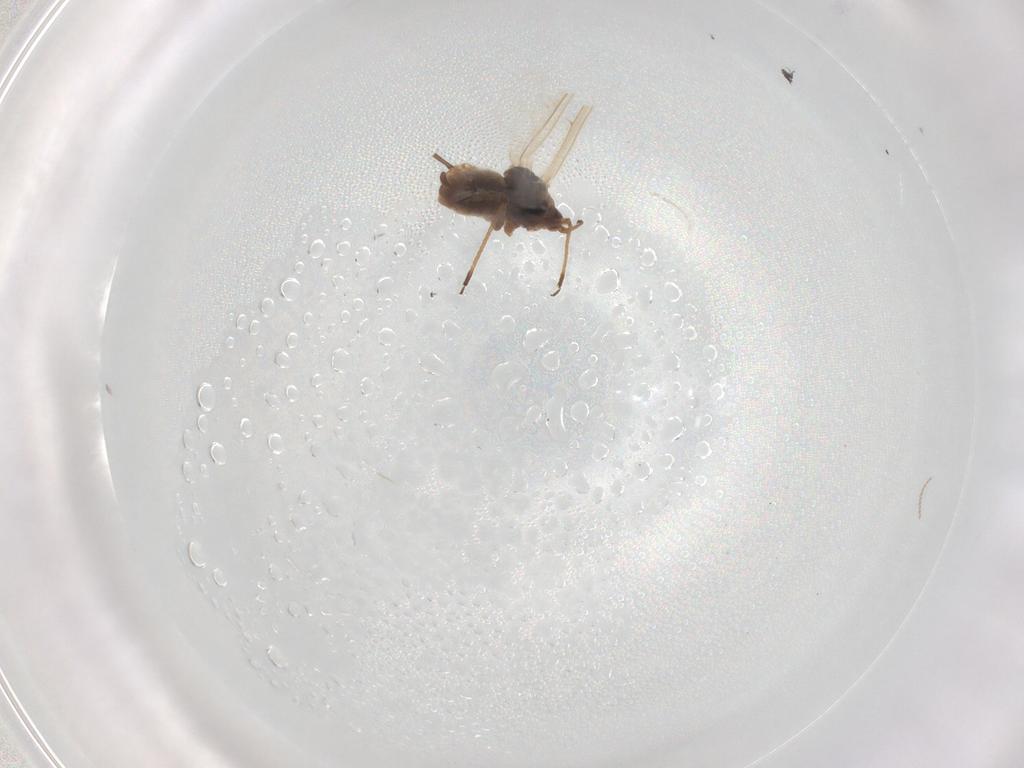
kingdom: Animalia
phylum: Arthropoda
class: Insecta
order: Hemiptera
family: Aphididae
